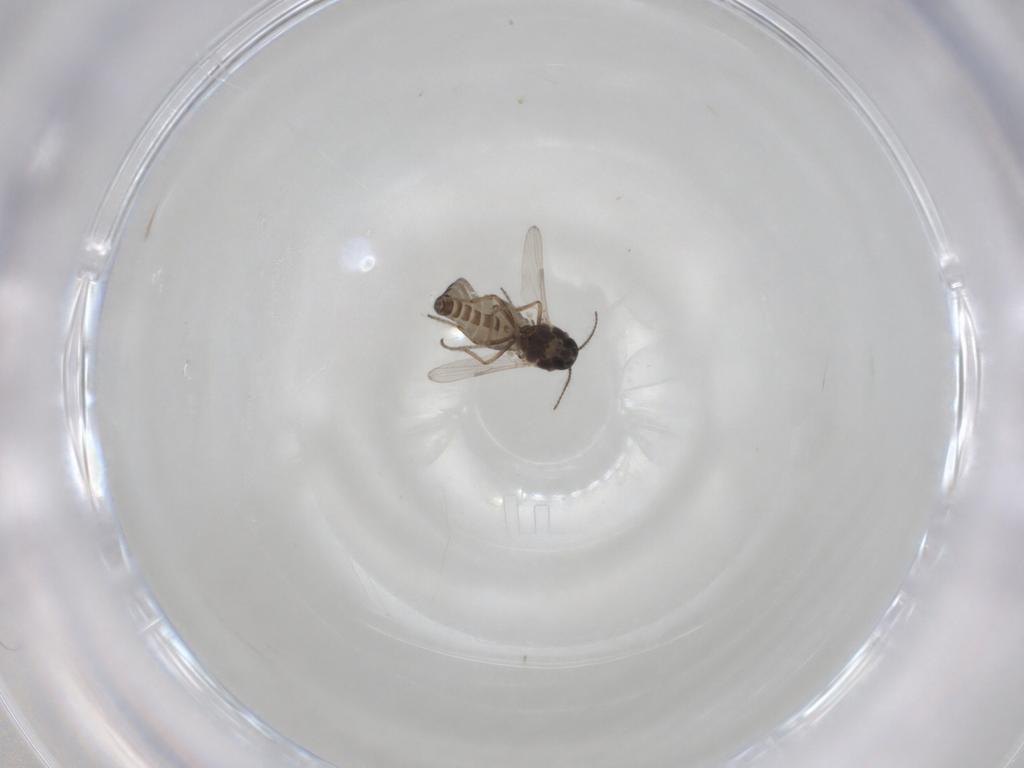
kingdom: Animalia
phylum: Arthropoda
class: Insecta
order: Diptera
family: Ceratopogonidae
